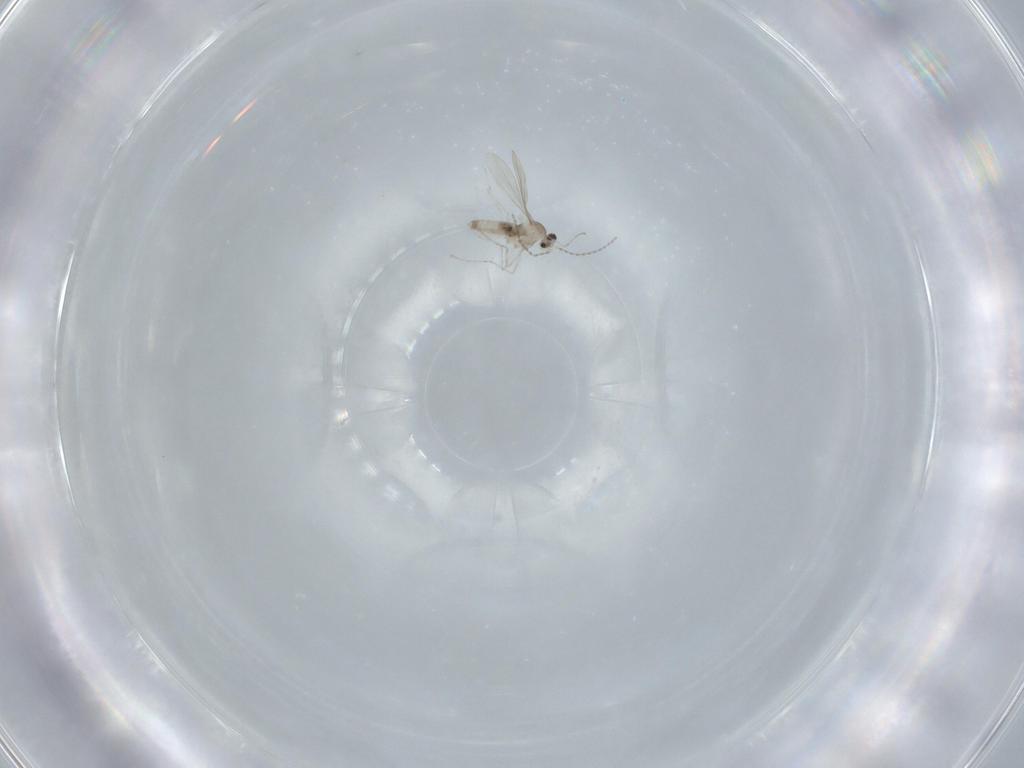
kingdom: Animalia
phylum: Arthropoda
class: Insecta
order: Diptera
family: Cecidomyiidae
